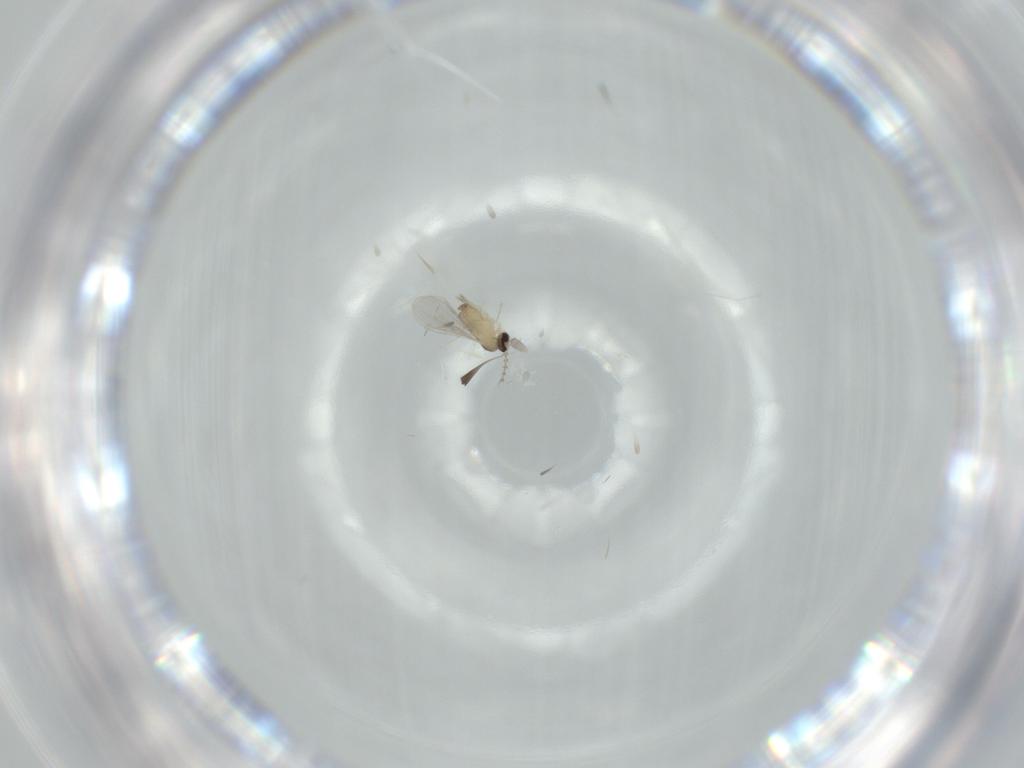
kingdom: Animalia
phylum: Arthropoda
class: Insecta
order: Diptera
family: Cecidomyiidae
